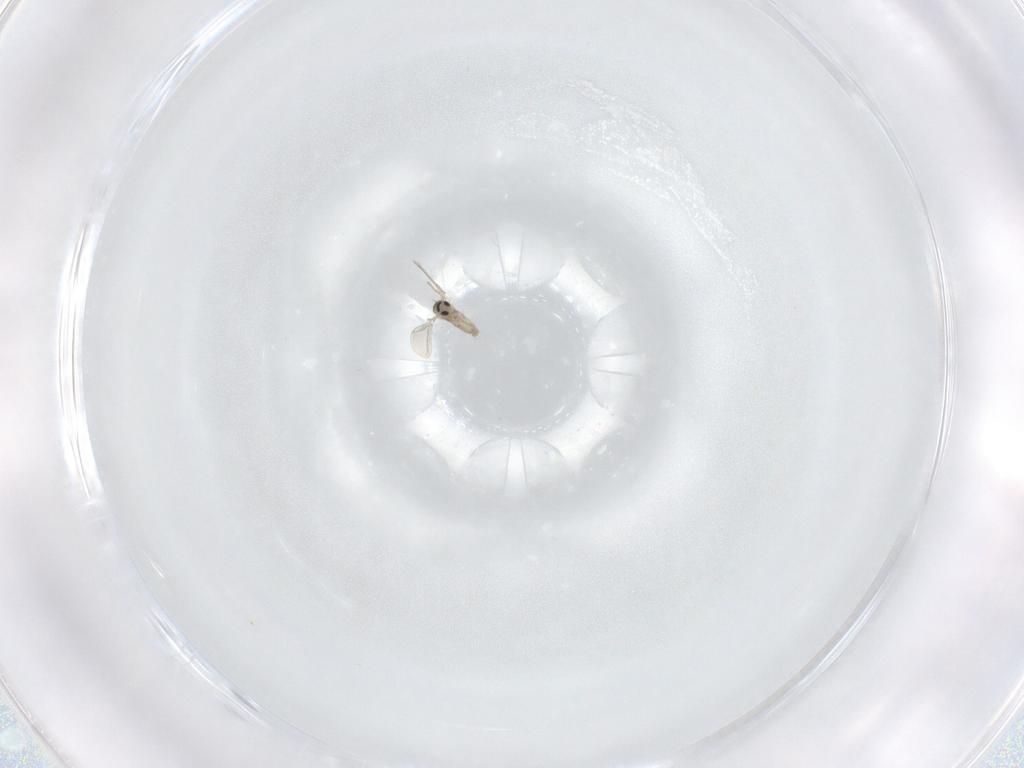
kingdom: Animalia
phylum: Arthropoda
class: Insecta
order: Diptera
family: Cecidomyiidae
